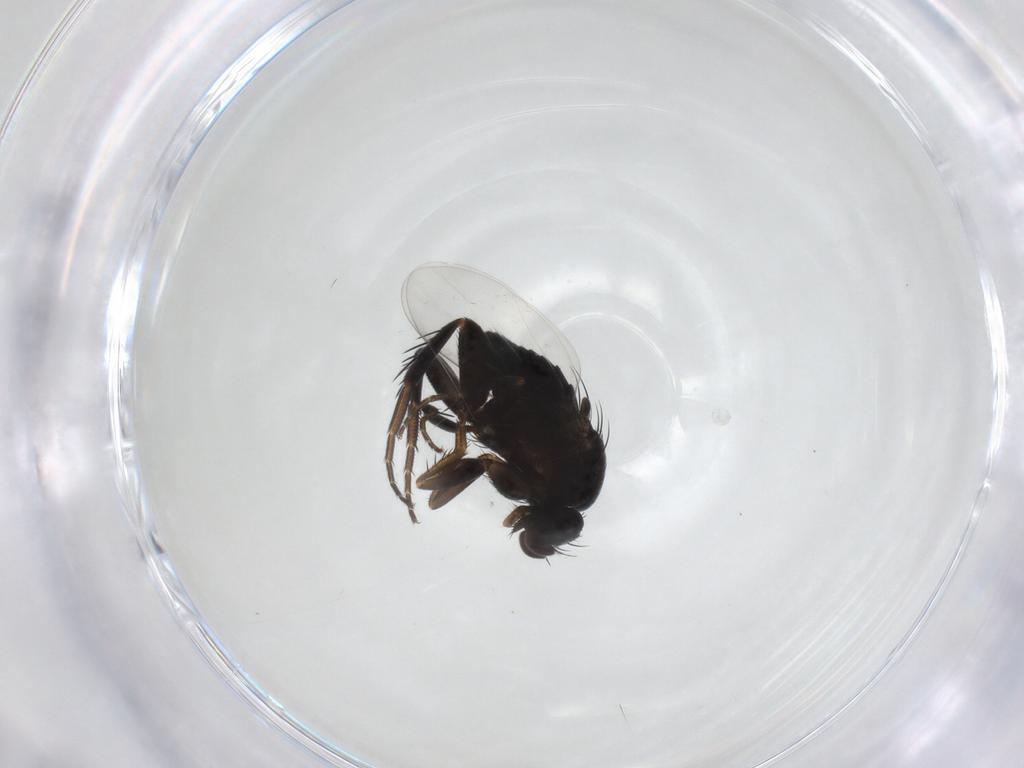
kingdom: Animalia
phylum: Arthropoda
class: Insecta
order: Diptera
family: Phoridae
